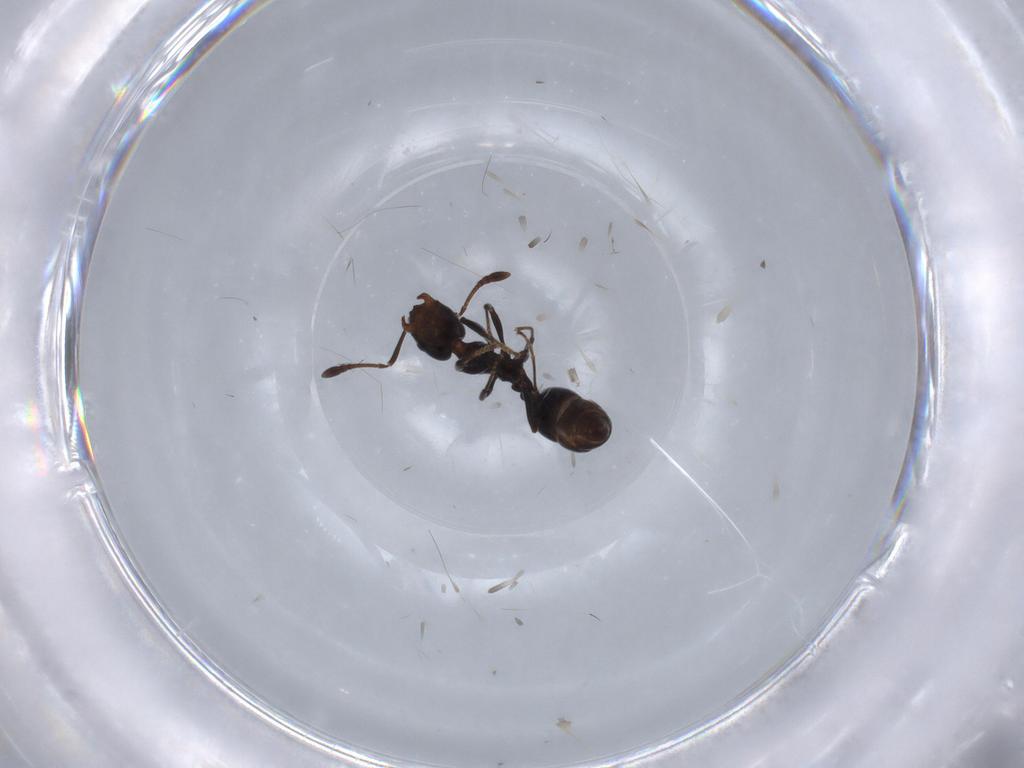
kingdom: Animalia
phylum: Arthropoda
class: Insecta
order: Hymenoptera
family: Formicidae
